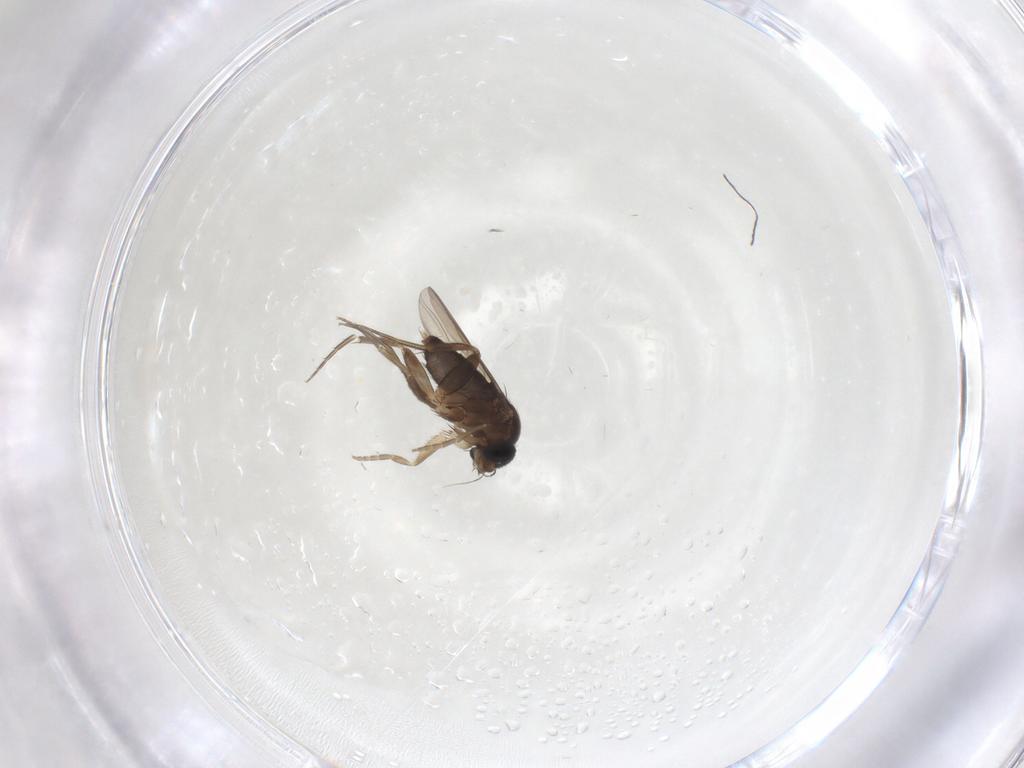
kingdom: Animalia
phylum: Arthropoda
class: Insecta
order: Diptera
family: Phoridae
